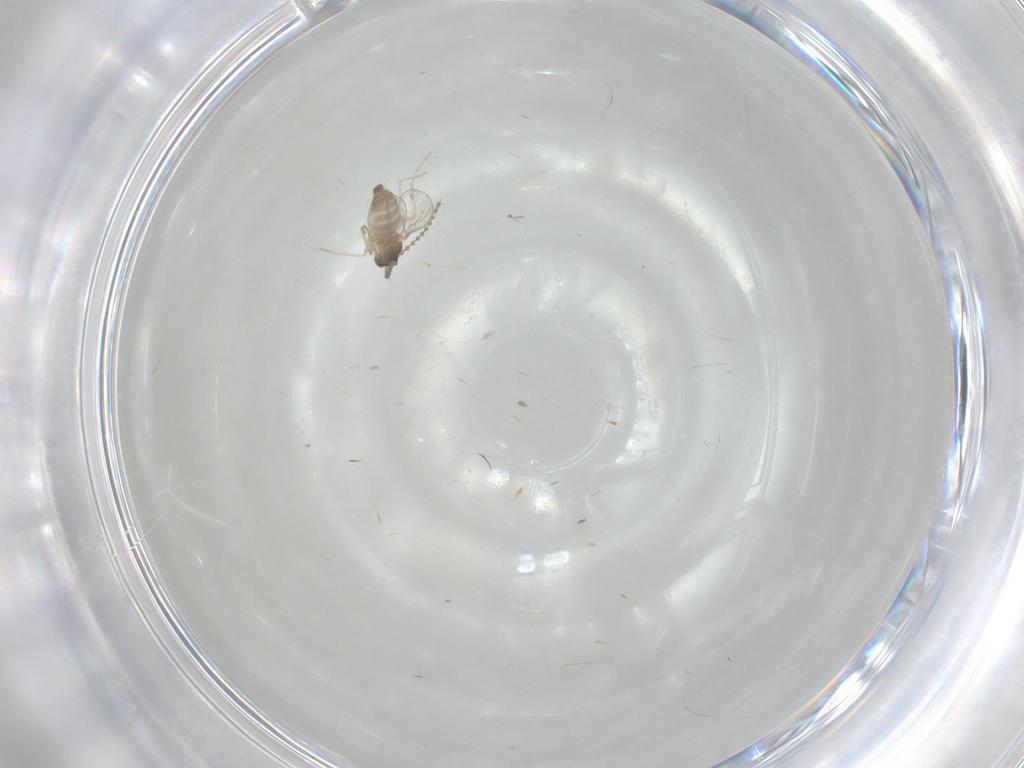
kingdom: Animalia
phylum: Arthropoda
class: Insecta
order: Diptera
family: Cecidomyiidae
